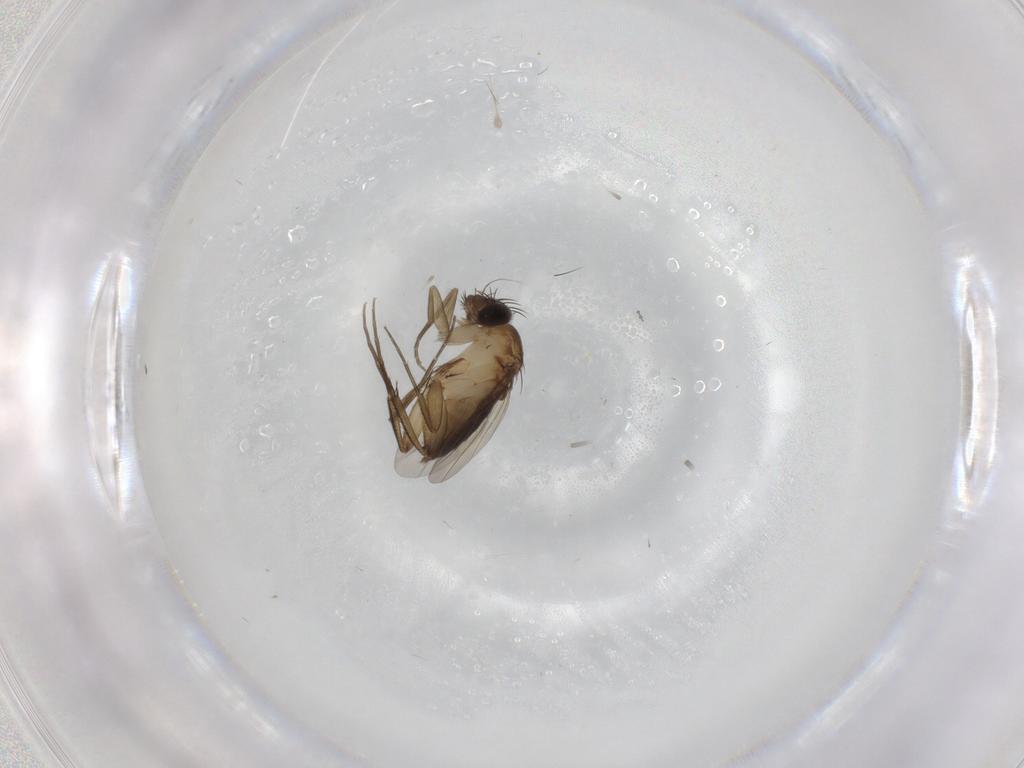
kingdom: Animalia
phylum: Arthropoda
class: Insecta
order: Diptera
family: Phoridae
